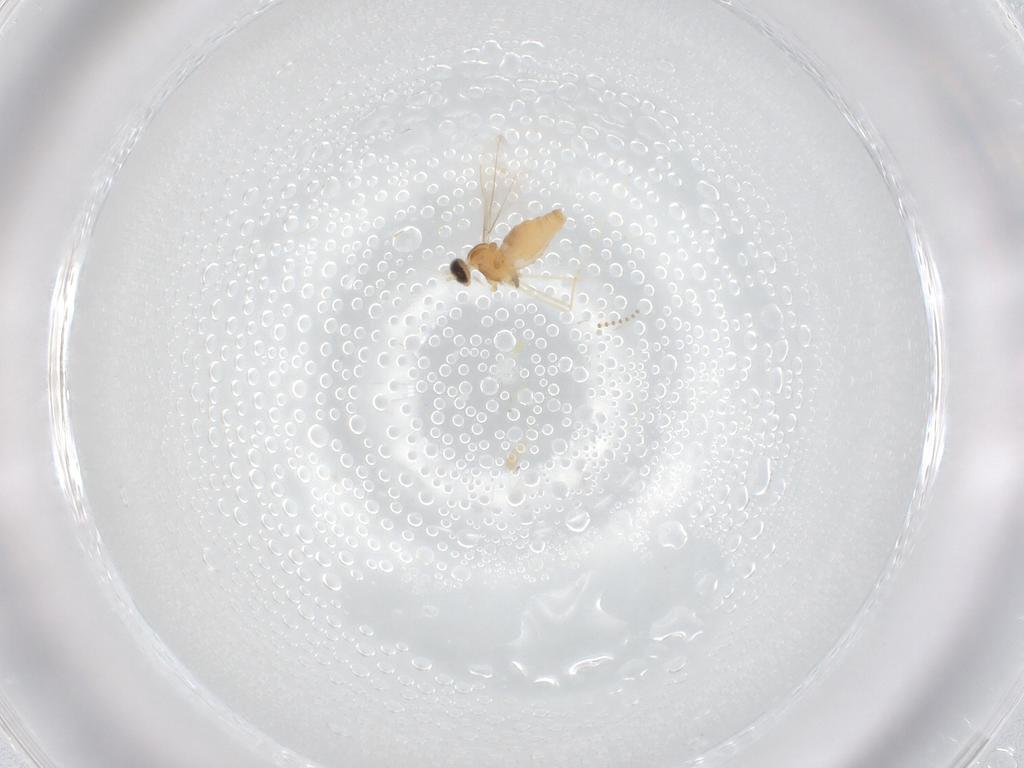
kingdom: Animalia
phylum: Arthropoda
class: Insecta
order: Diptera
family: Cecidomyiidae
